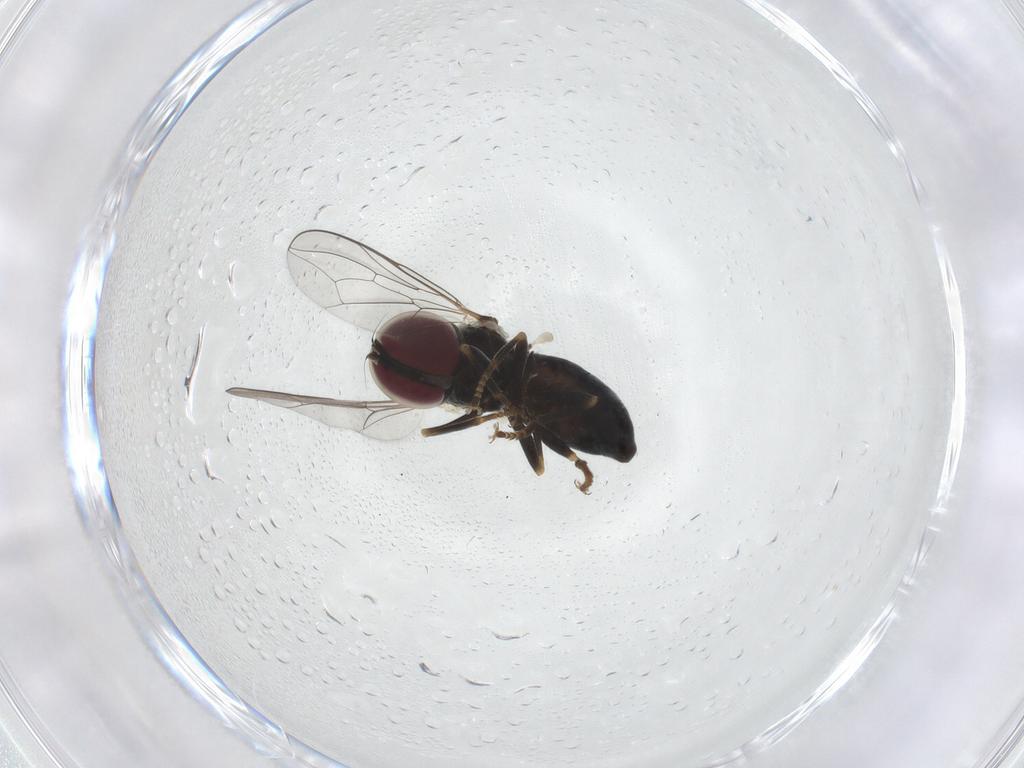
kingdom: Animalia
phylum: Arthropoda
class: Insecta
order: Diptera
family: Pipunculidae
